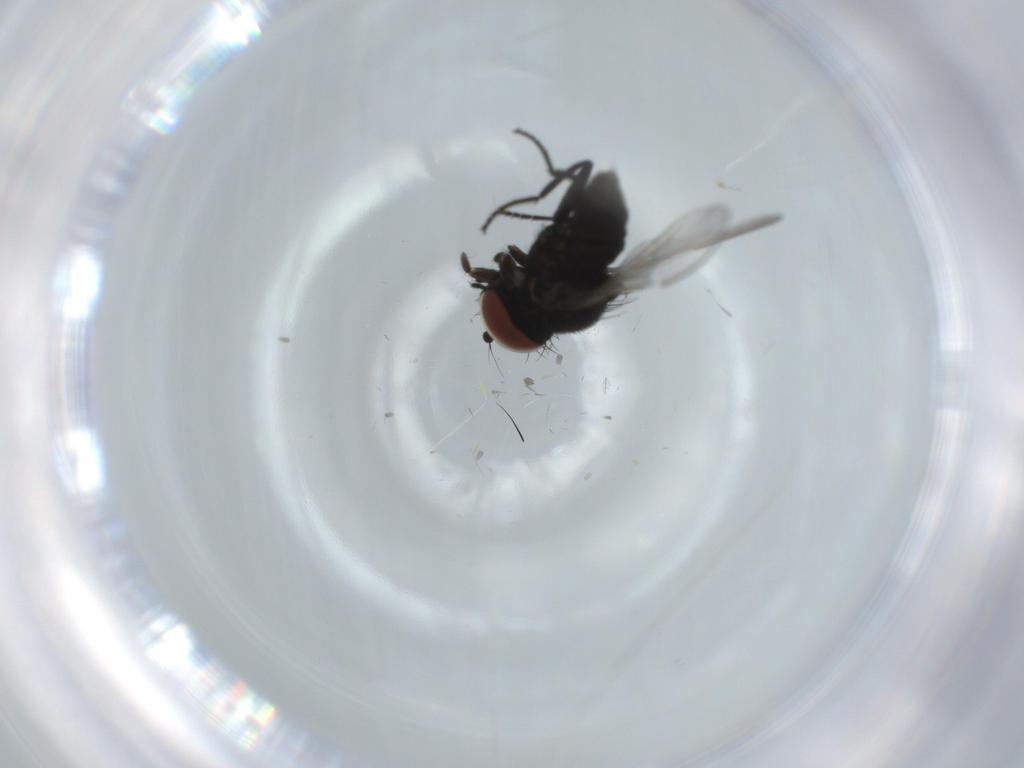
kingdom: Animalia
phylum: Arthropoda
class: Insecta
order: Diptera
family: Milichiidae
